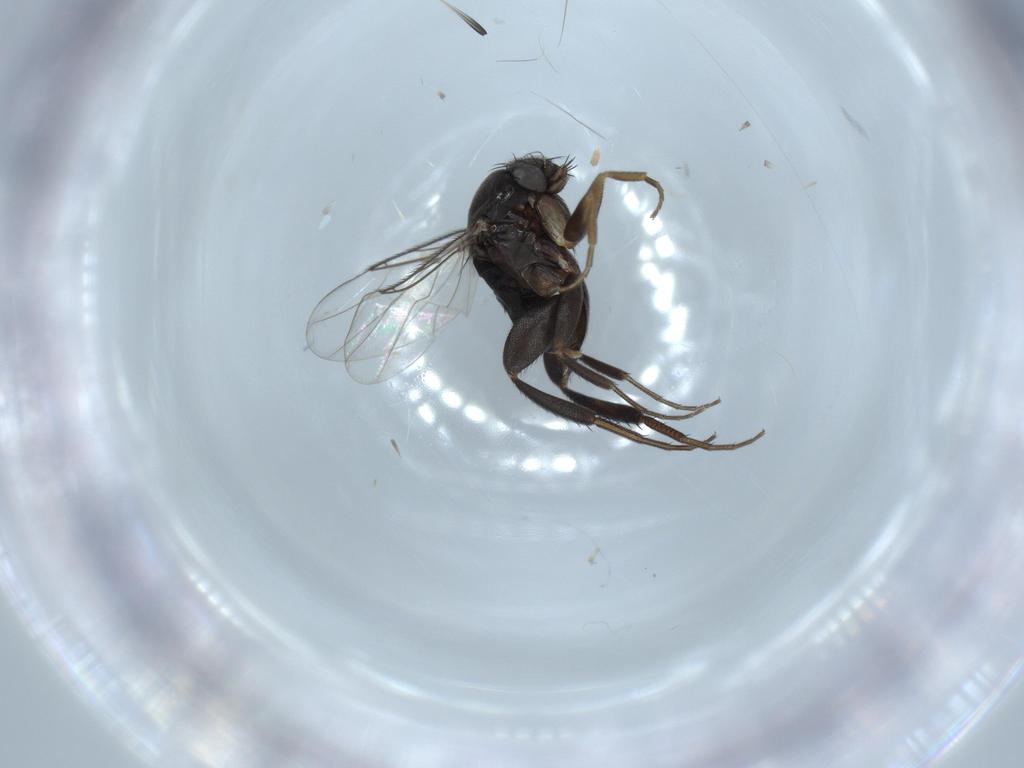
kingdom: Animalia
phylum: Arthropoda
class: Insecta
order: Diptera
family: Phoridae
